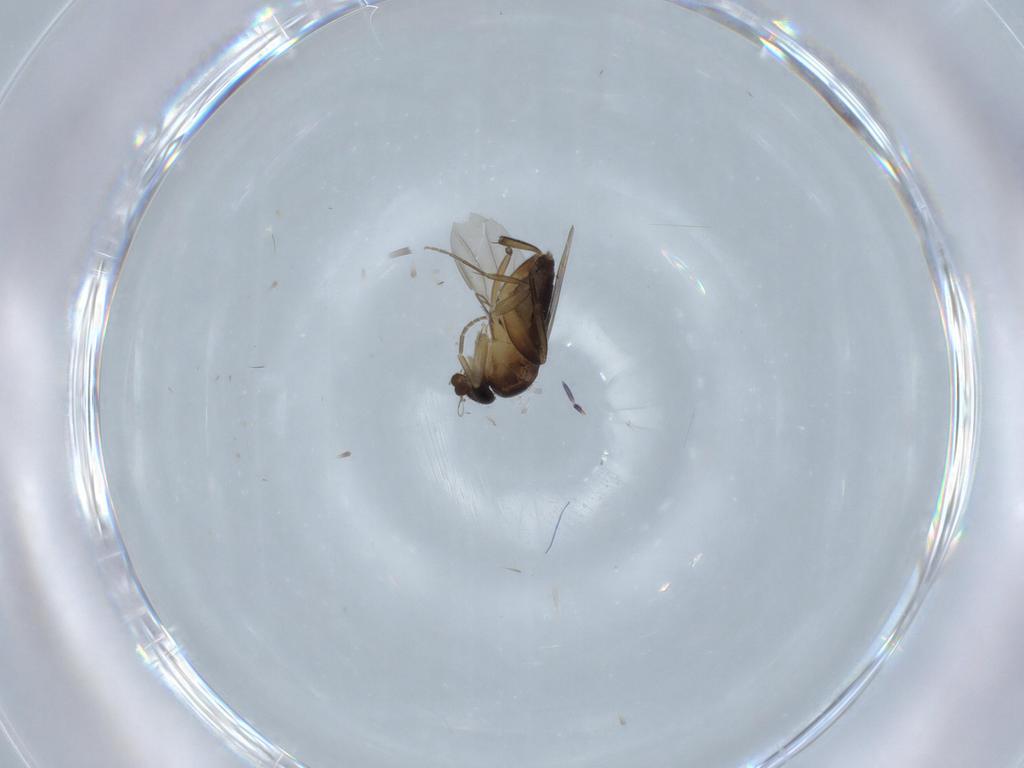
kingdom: Animalia
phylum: Arthropoda
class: Insecta
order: Diptera
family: Phoridae
